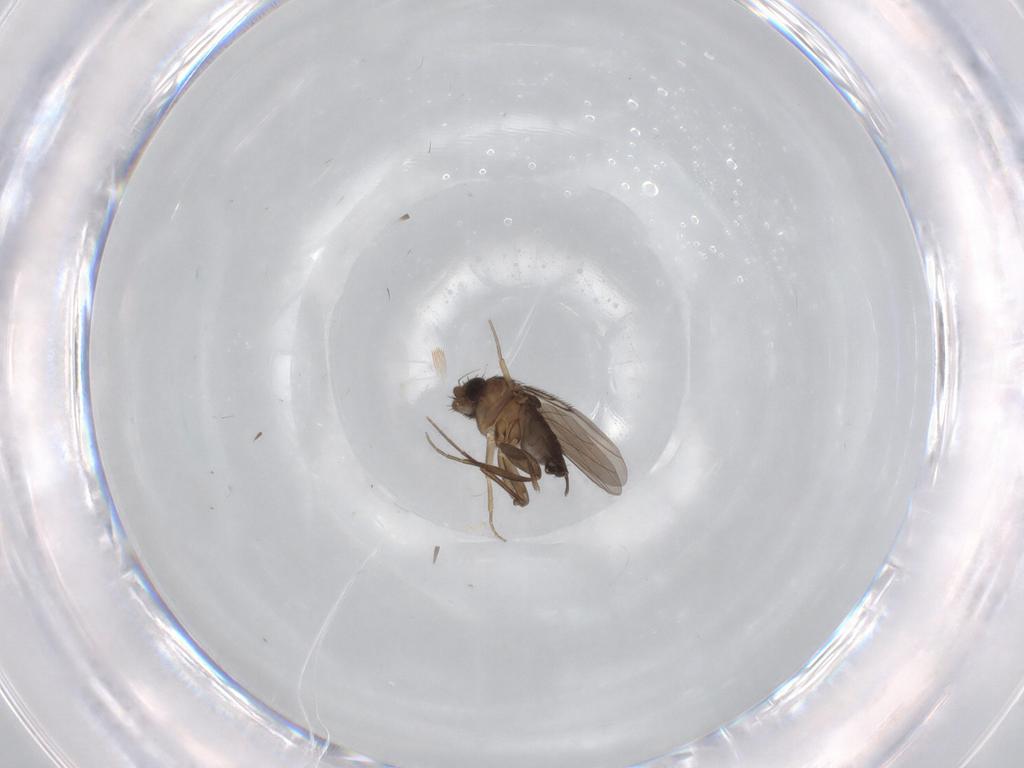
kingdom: Animalia
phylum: Arthropoda
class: Insecta
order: Diptera
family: Phoridae
